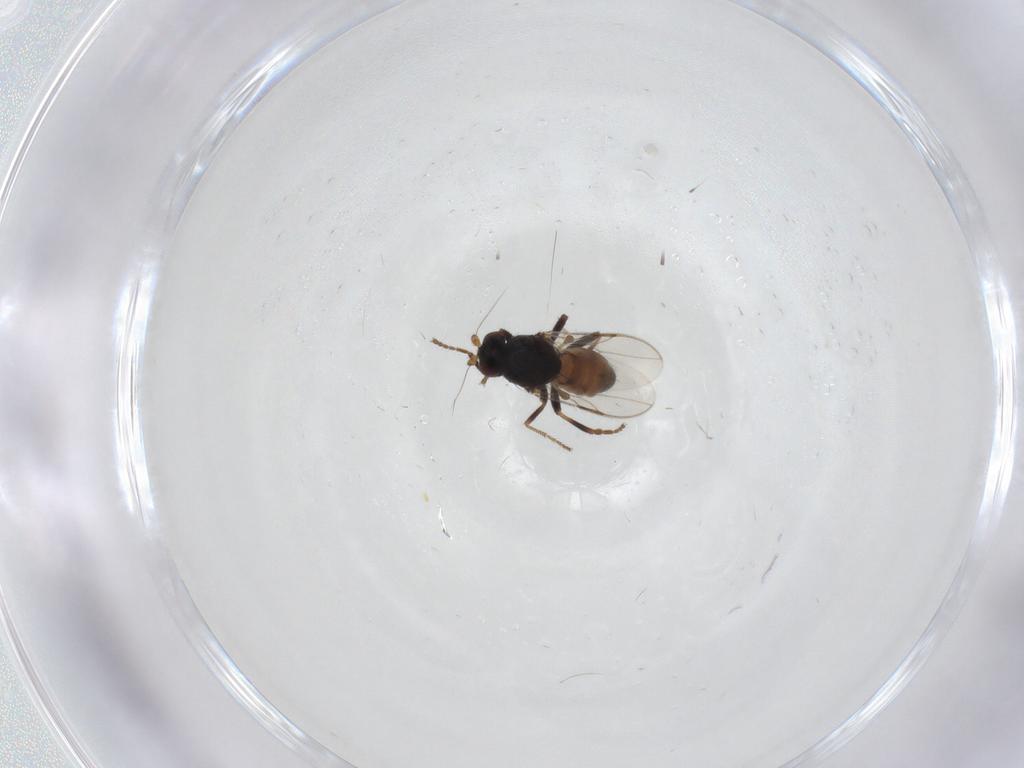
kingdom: Animalia
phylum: Arthropoda
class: Insecta
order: Diptera
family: Sphaeroceridae
